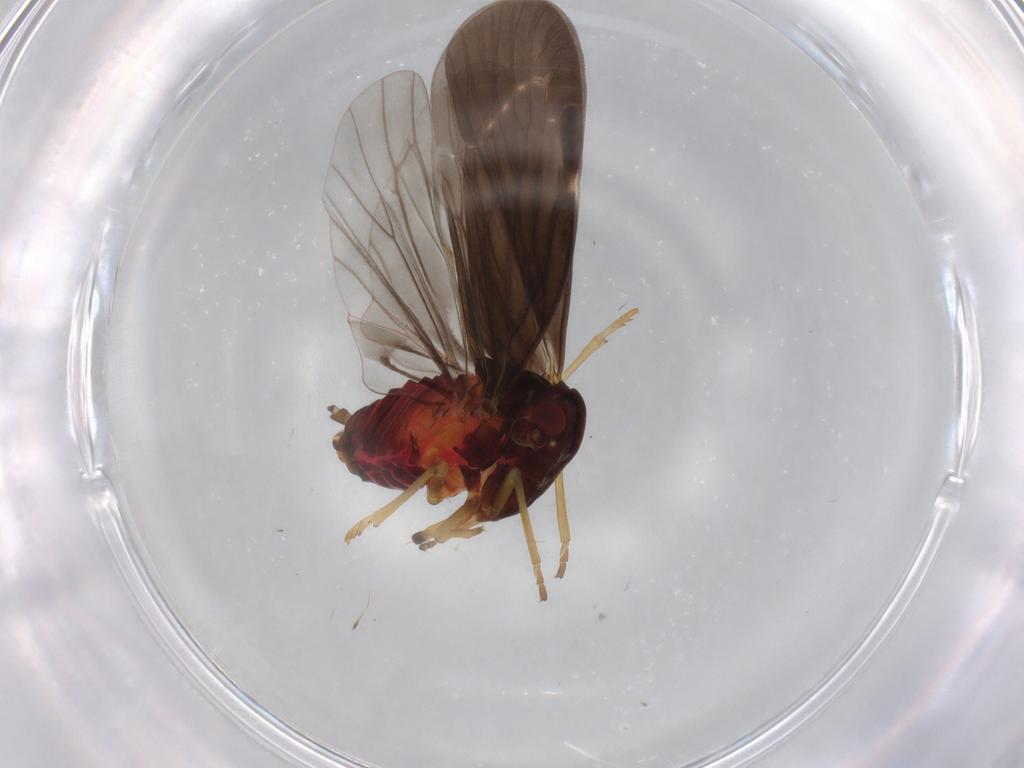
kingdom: Animalia
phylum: Arthropoda
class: Insecta
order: Hemiptera
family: Derbidae
